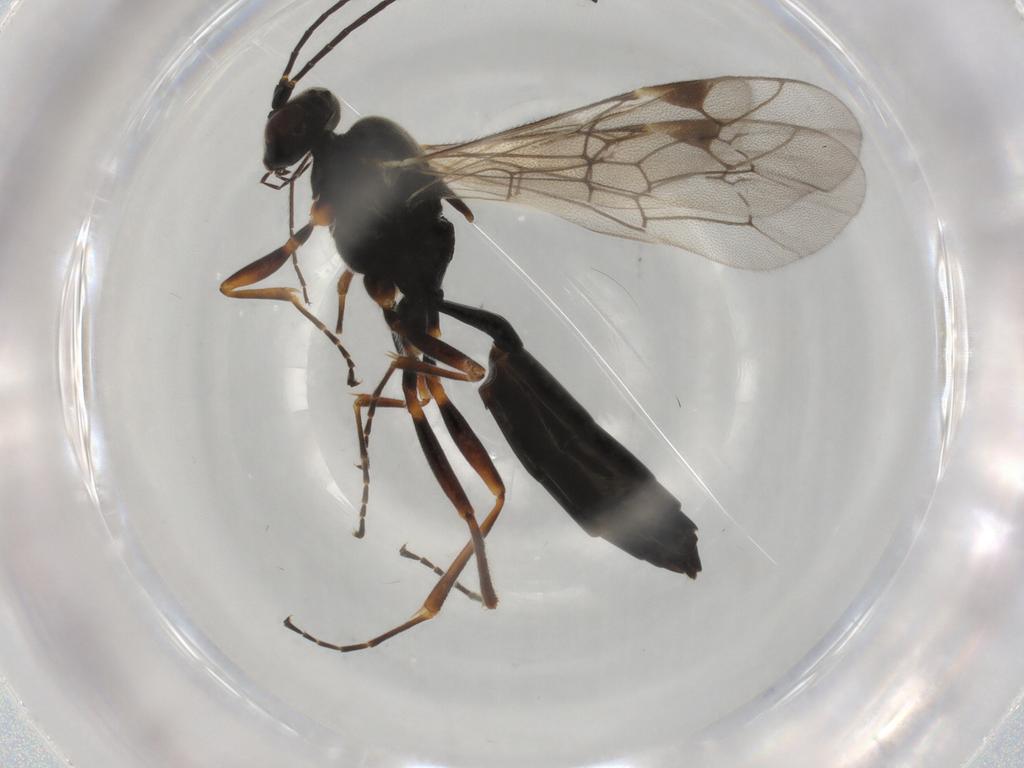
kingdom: Animalia
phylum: Arthropoda
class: Insecta
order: Hymenoptera
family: Ichneumonidae
